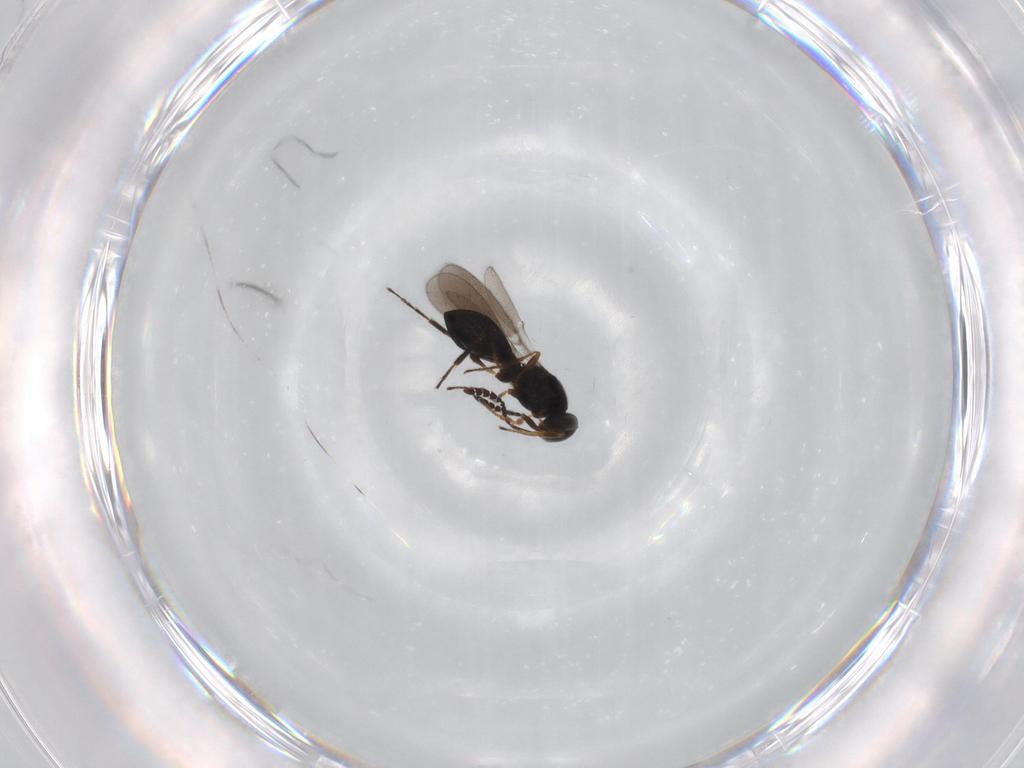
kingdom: Animalia
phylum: Arthropoda
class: Insecta
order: Hymenoptera
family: Platygastridae
